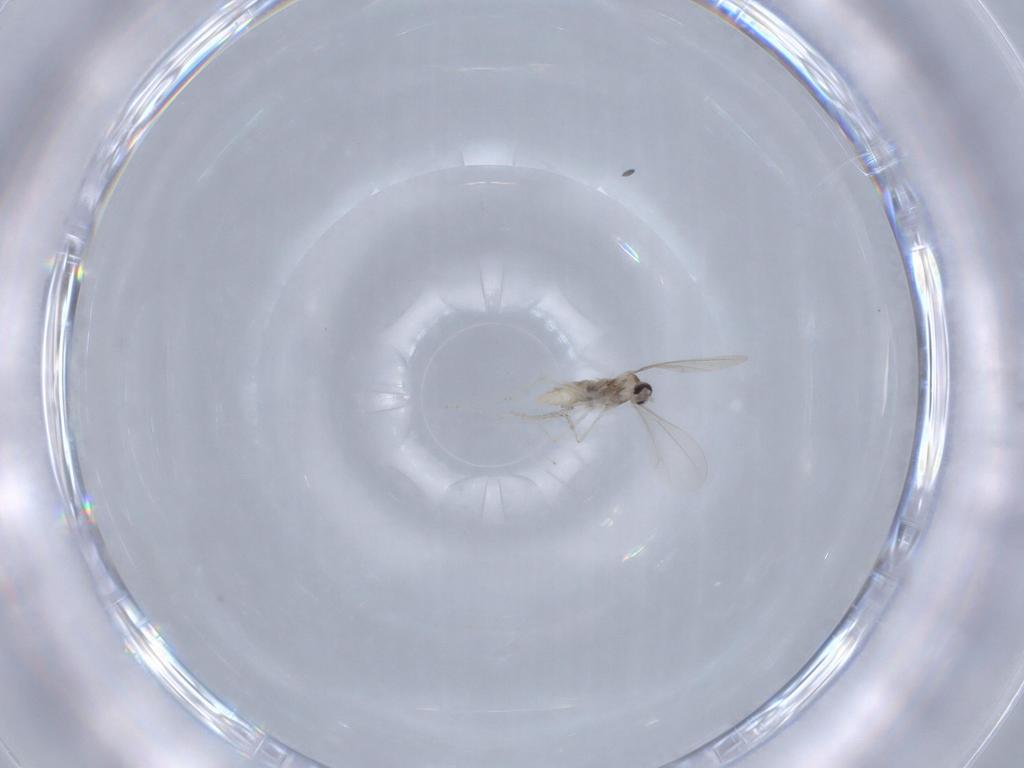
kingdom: Animalia
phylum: Arthropoda
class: Insecta
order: Diptera
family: Cecidomyiidae
